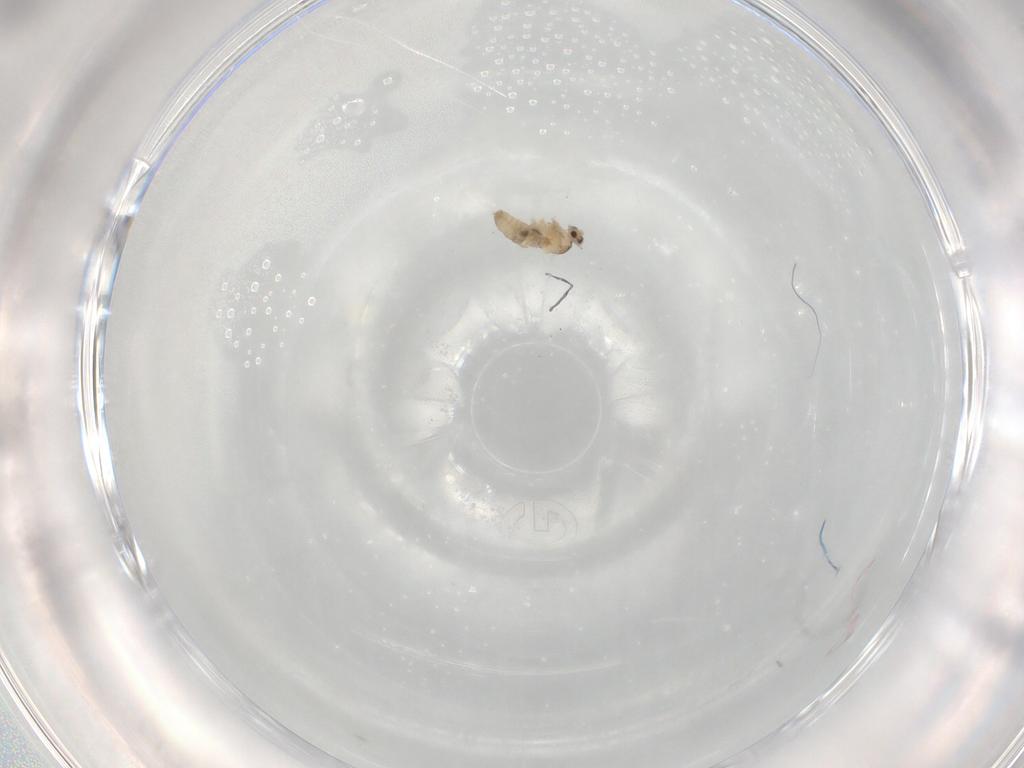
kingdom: Animalia
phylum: Arthropoda
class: Insecta
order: Diptera
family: Cecidomyiidae
